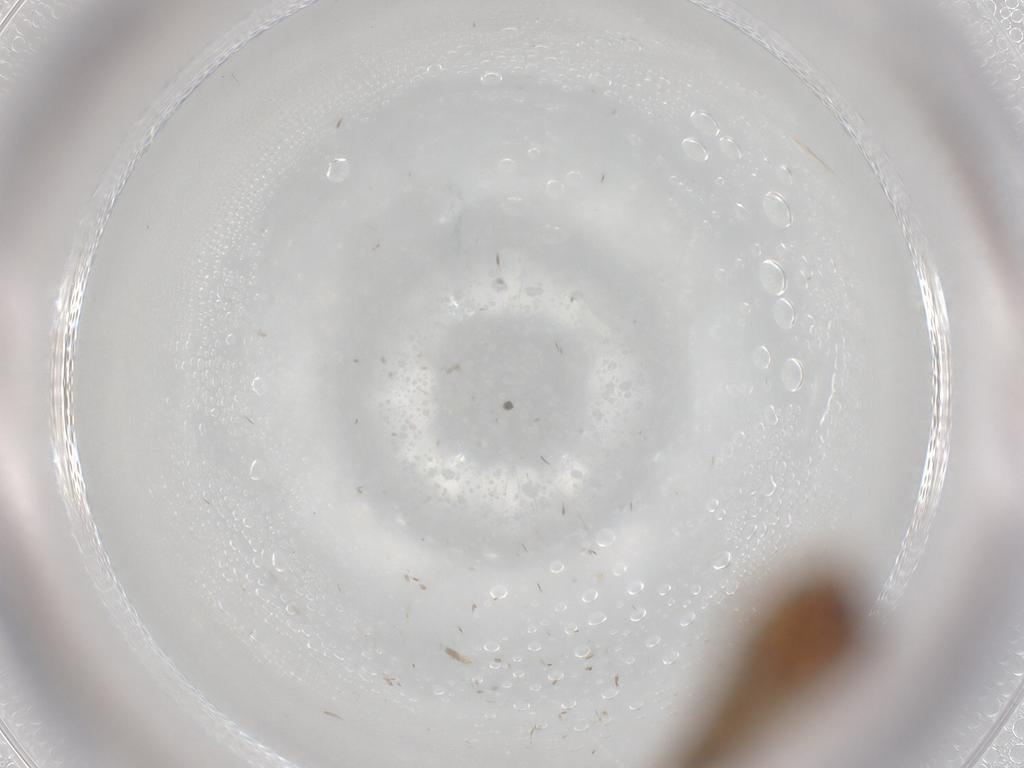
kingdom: Animalia
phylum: Arthropoda
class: Insecta
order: Lepidoptera
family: Cosmopterigidae
